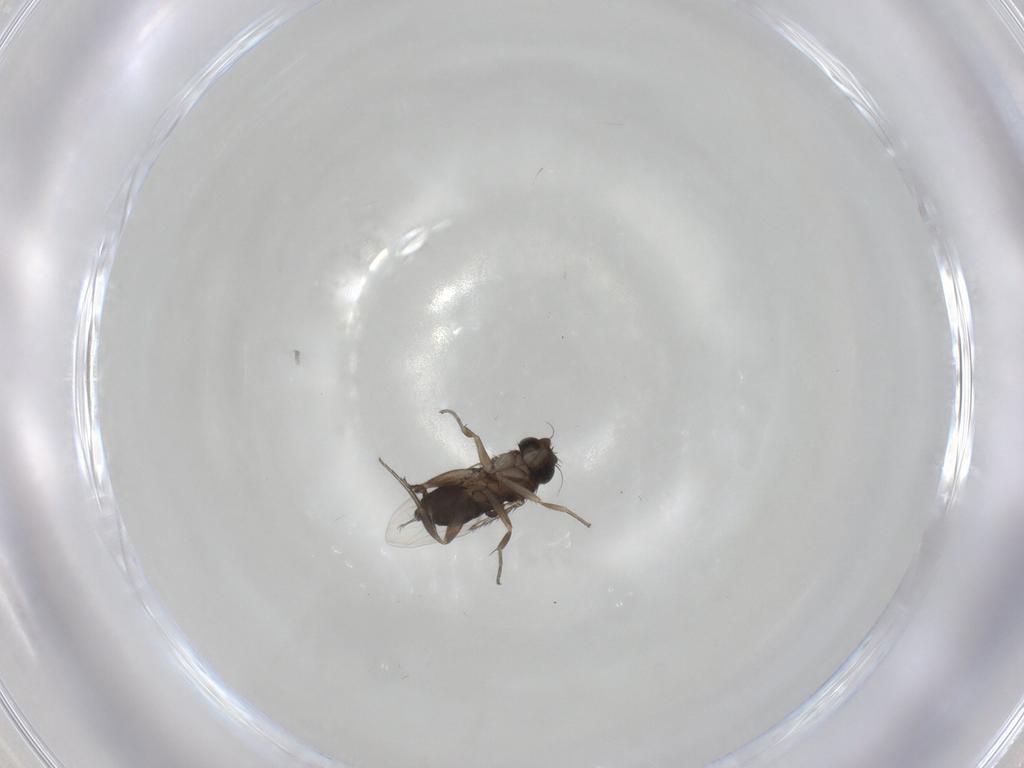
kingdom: Animalia
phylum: Arthropoda
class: Insecta
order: Diptera
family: Phoridae
